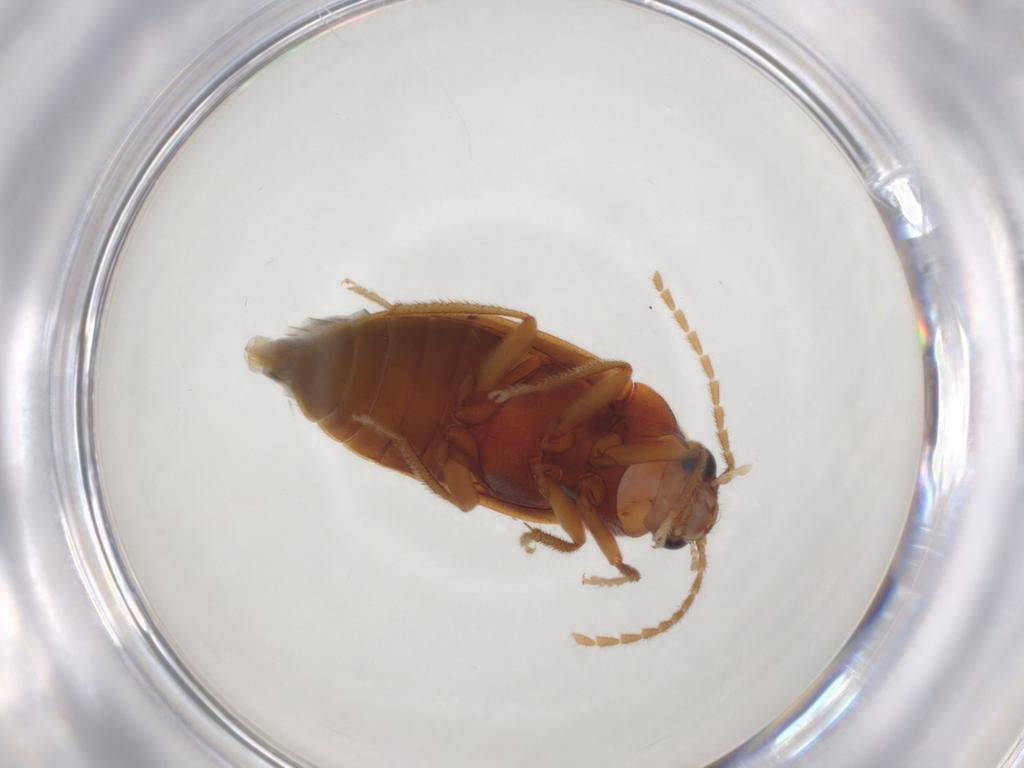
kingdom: Animalia
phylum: Arthropoda
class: Insecta
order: Coleoptera
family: Ptilodactylidae
